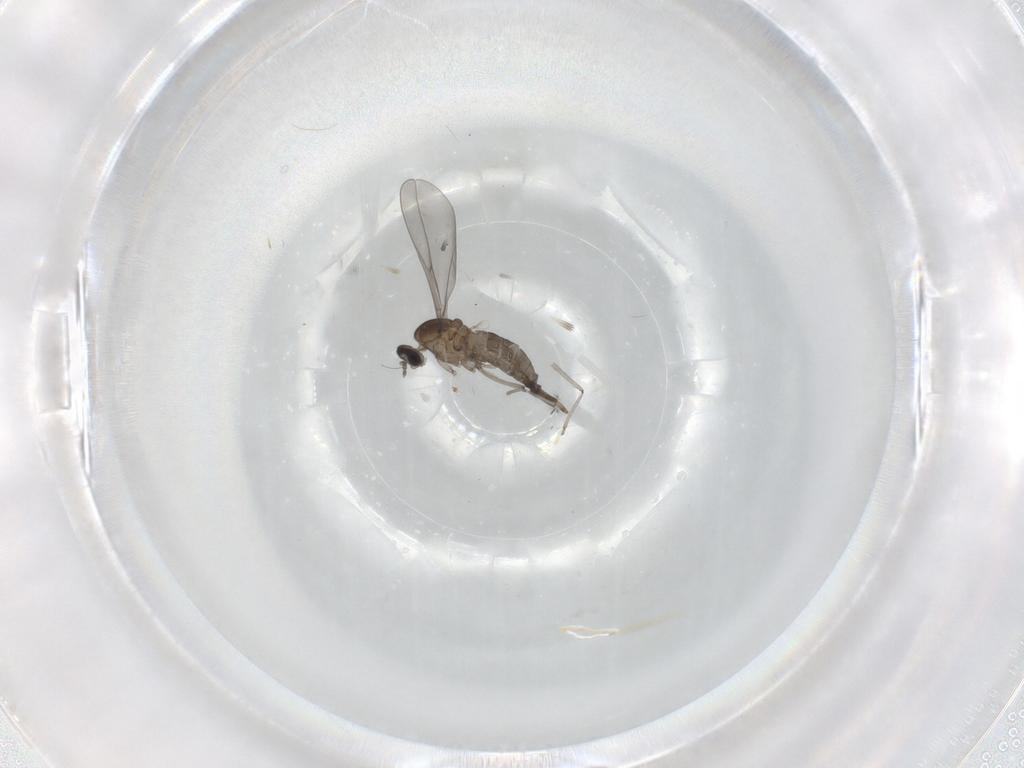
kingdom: Animalia
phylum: Arthropoda
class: Insecta
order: Diptera
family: Cecidomyiidae
